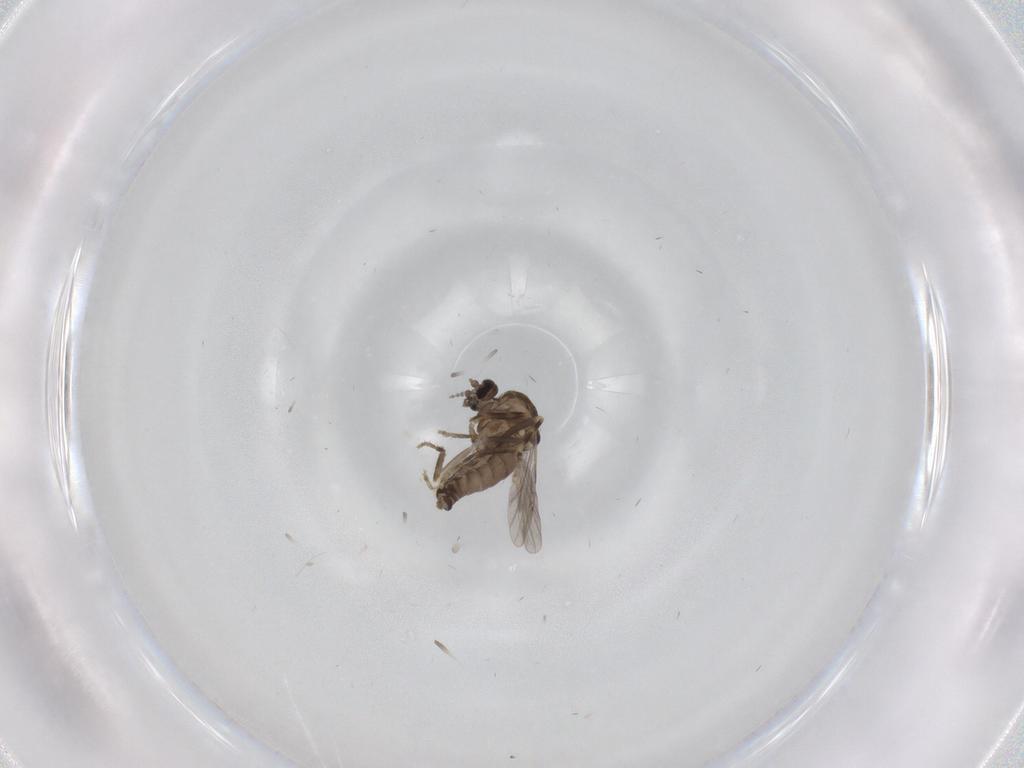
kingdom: Animalia
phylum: Arthropoda
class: Insecta
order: Diptera
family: Ceratopogonidae
